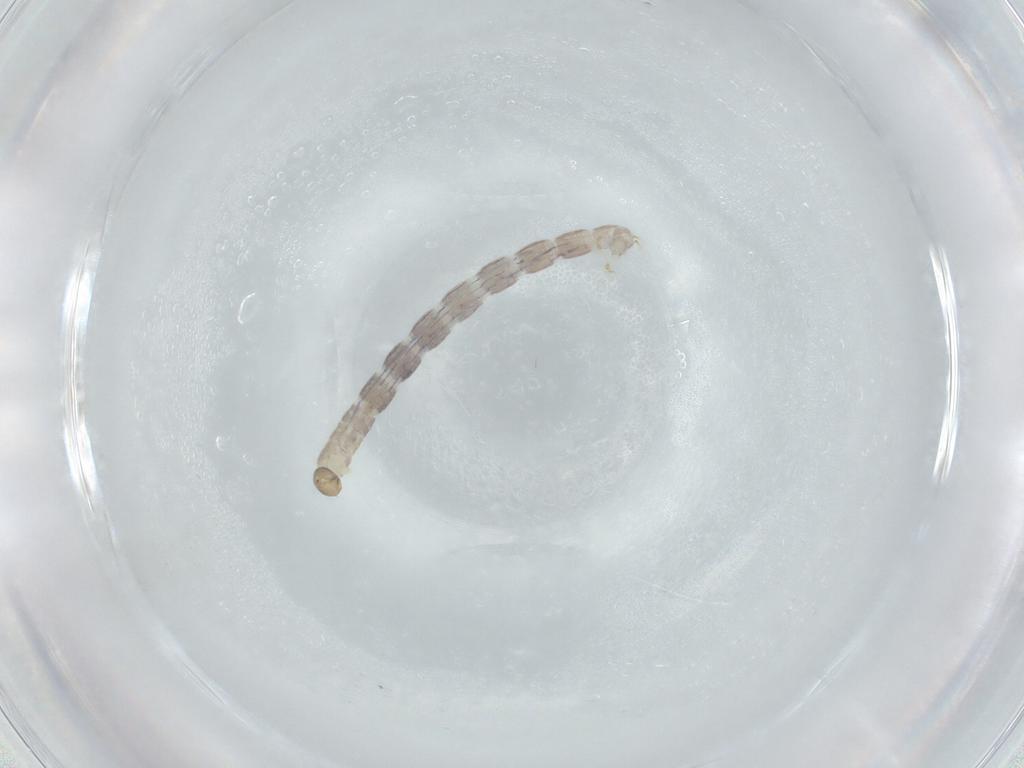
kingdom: Animalia
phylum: Arthropoda
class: Insecta
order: Diptera
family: Chironomidae
